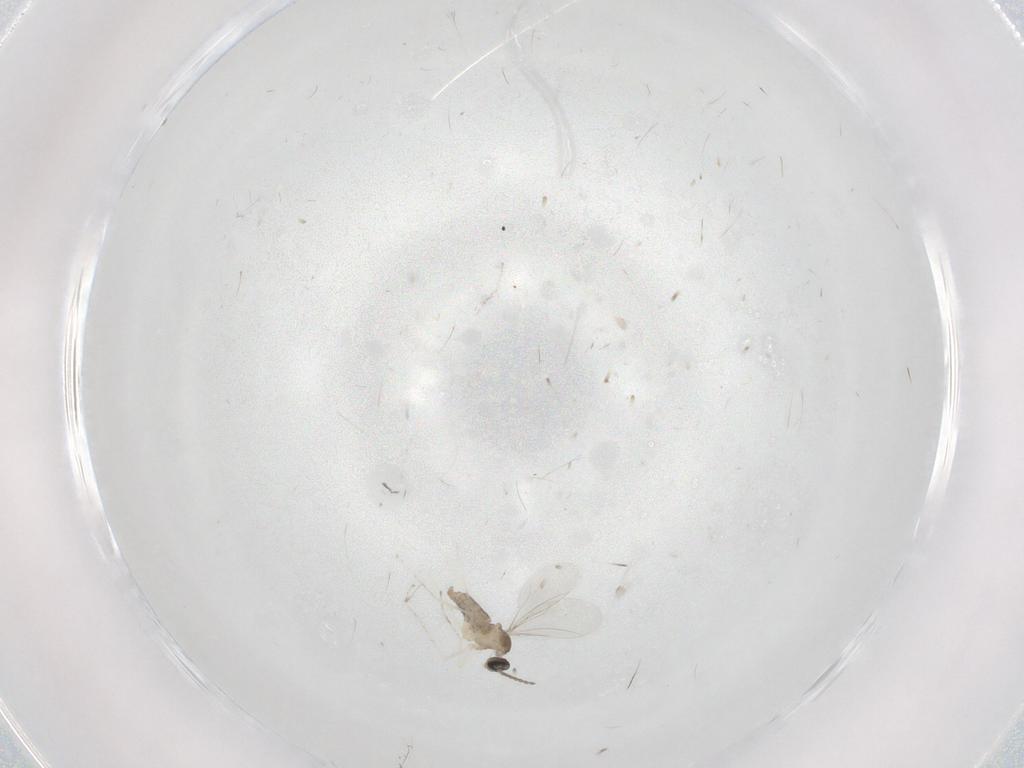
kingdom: Animalia
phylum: Arthropoda
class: Insecta
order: Diptera
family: Cecidomyiidae
